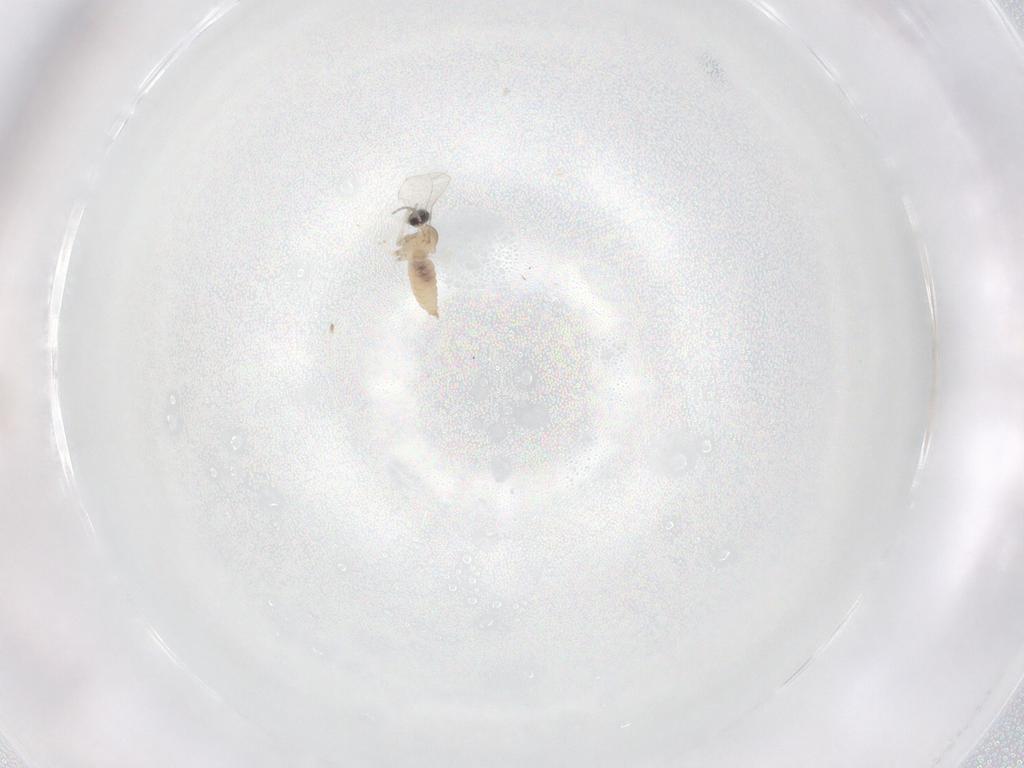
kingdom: Animalia
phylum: Arthropoda
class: Insecta
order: Diptera
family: Cecidomyiidae
